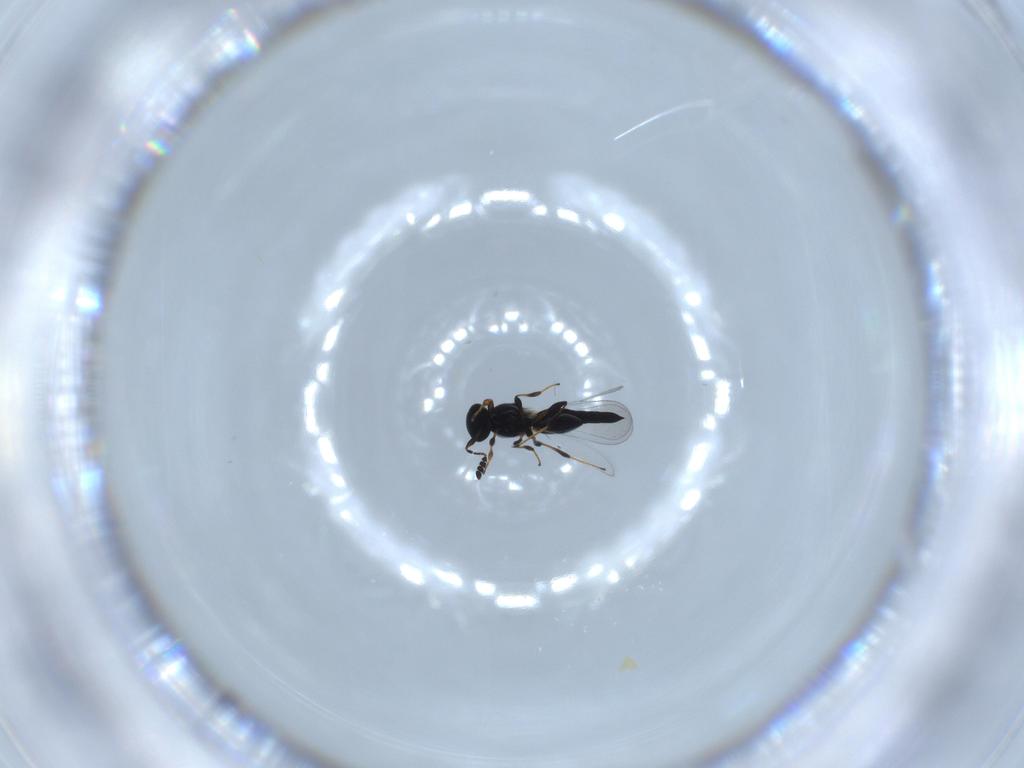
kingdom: Animalia
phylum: Arthropoda
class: Insecta
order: Hymenoptera
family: Platygastridae
